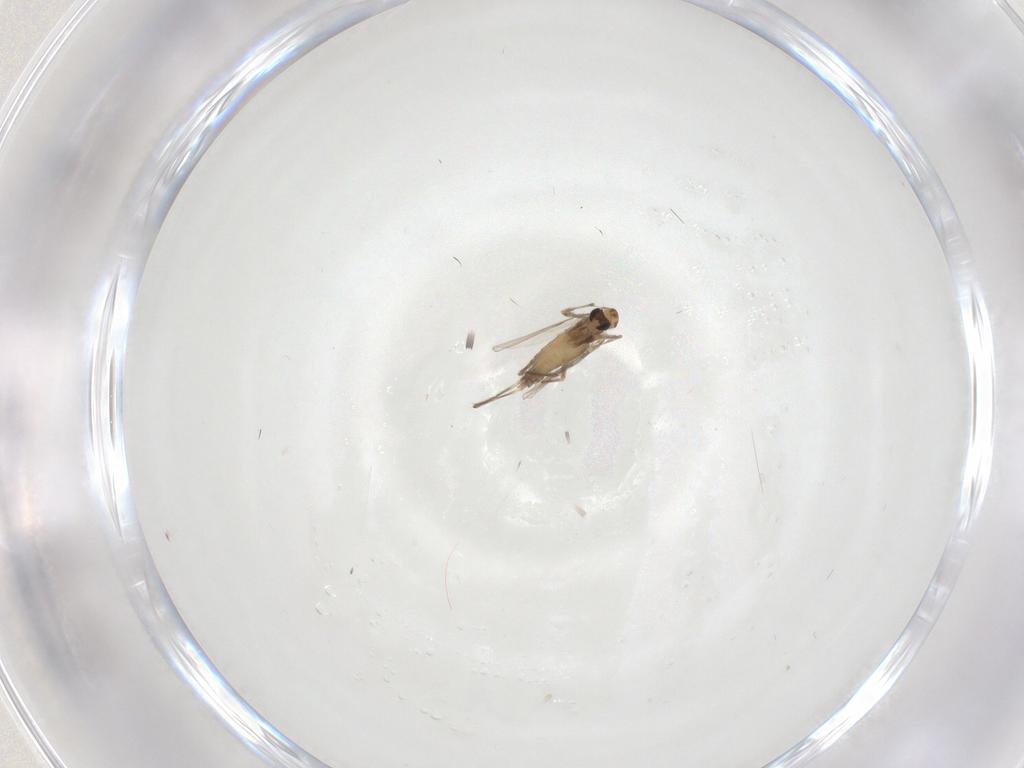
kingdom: Animalia
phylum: Arthropoda
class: Insecta
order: Diptera
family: Chironomidae
